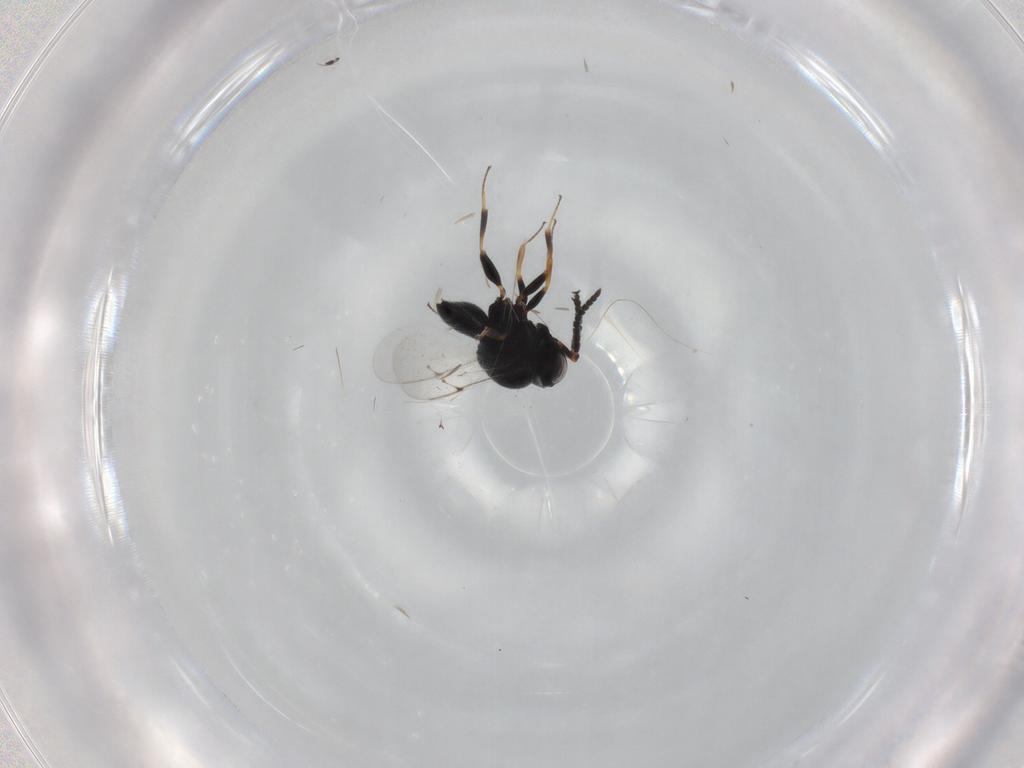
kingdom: Animalia
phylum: Arthropoda
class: Insecta
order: Hymenoptera
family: Scelionidae
